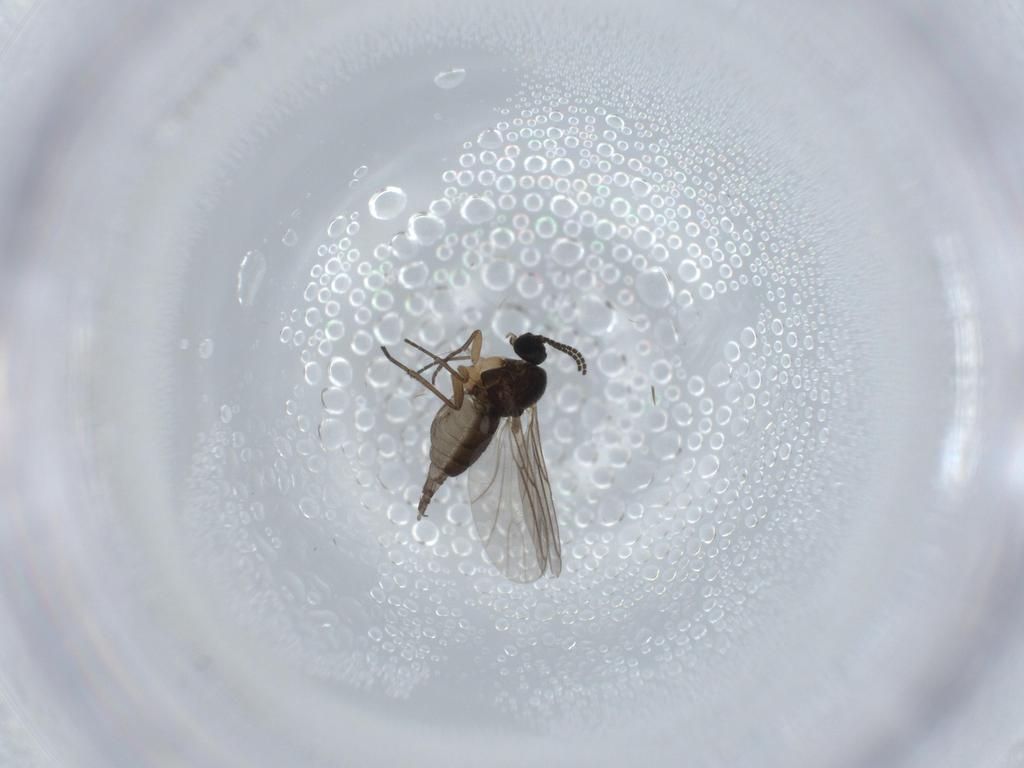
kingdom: Animalia
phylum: Arthropoda
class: Insecta
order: Diptera
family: Sciaridae
